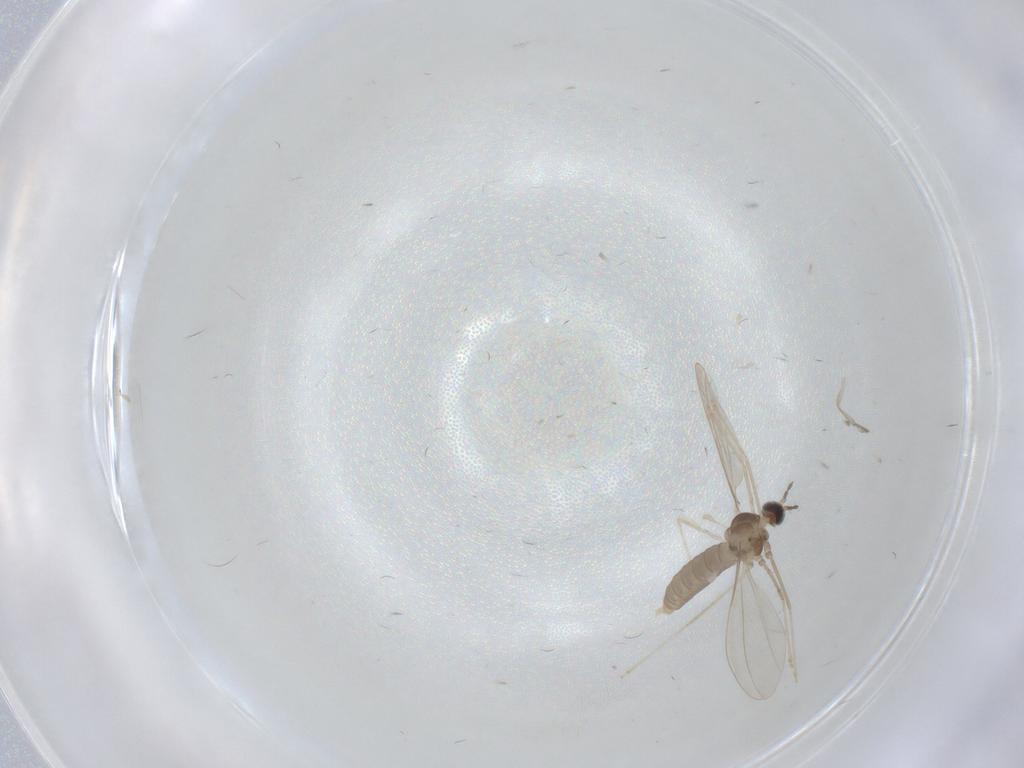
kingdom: Animalia
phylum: Arthropoda
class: Insecta
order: Diptera
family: Cecidomyiidae
